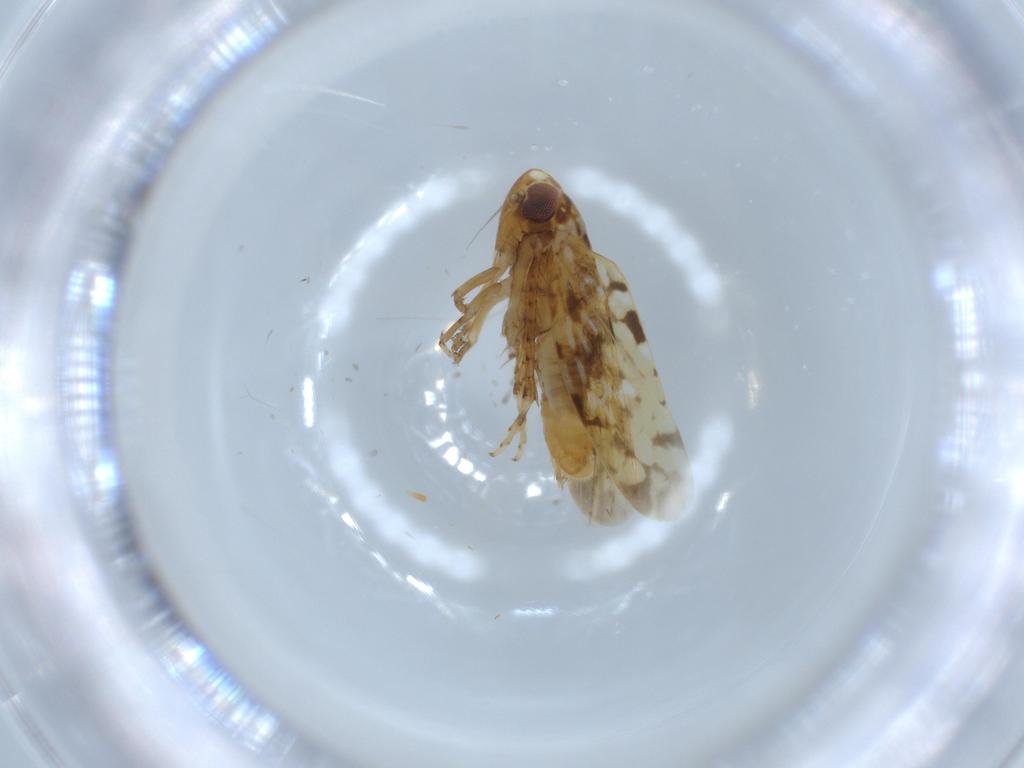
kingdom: Animalia
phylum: Arthropoda
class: Insecta
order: Hemiptera
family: Cicadellidae
